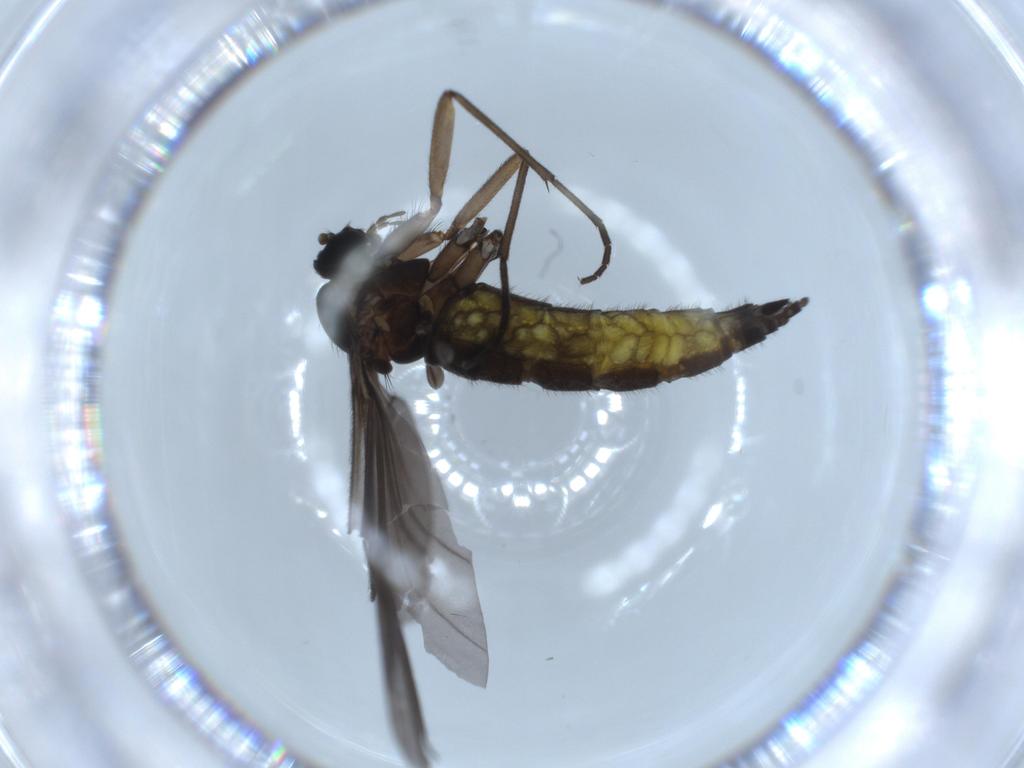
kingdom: Animalia
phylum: Arthropoda
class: Insecta
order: Diptera
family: Sciaridae
